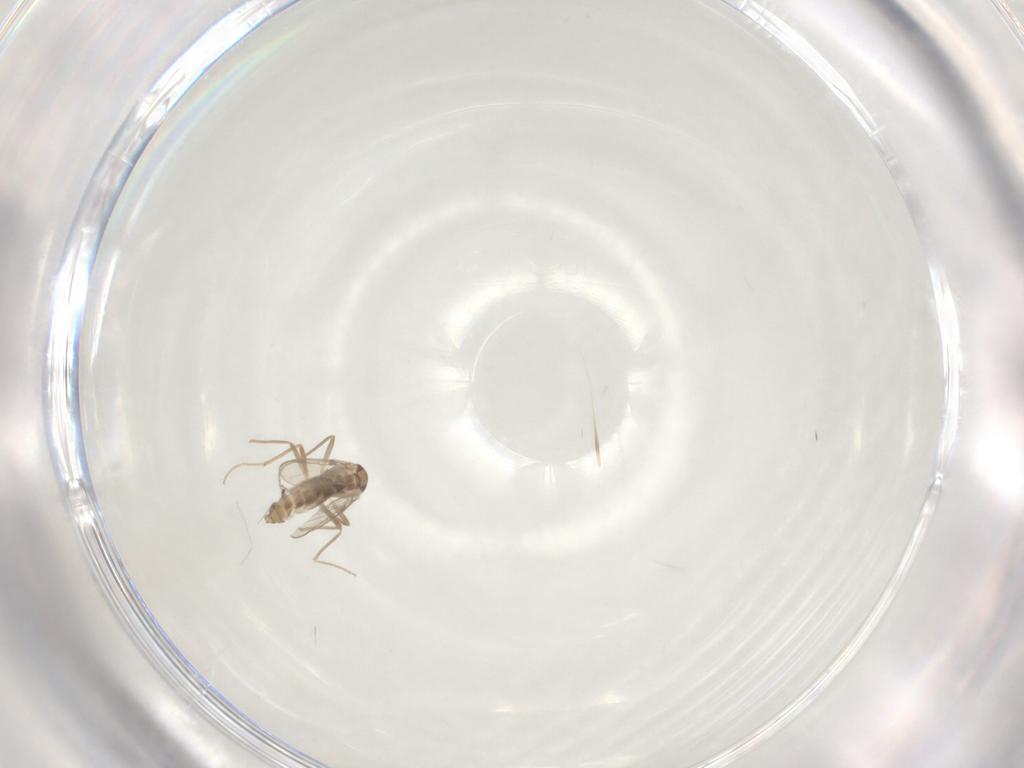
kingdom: Animalia
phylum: Arthropoda
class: Insecta
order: Diptera
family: Chironomidae
